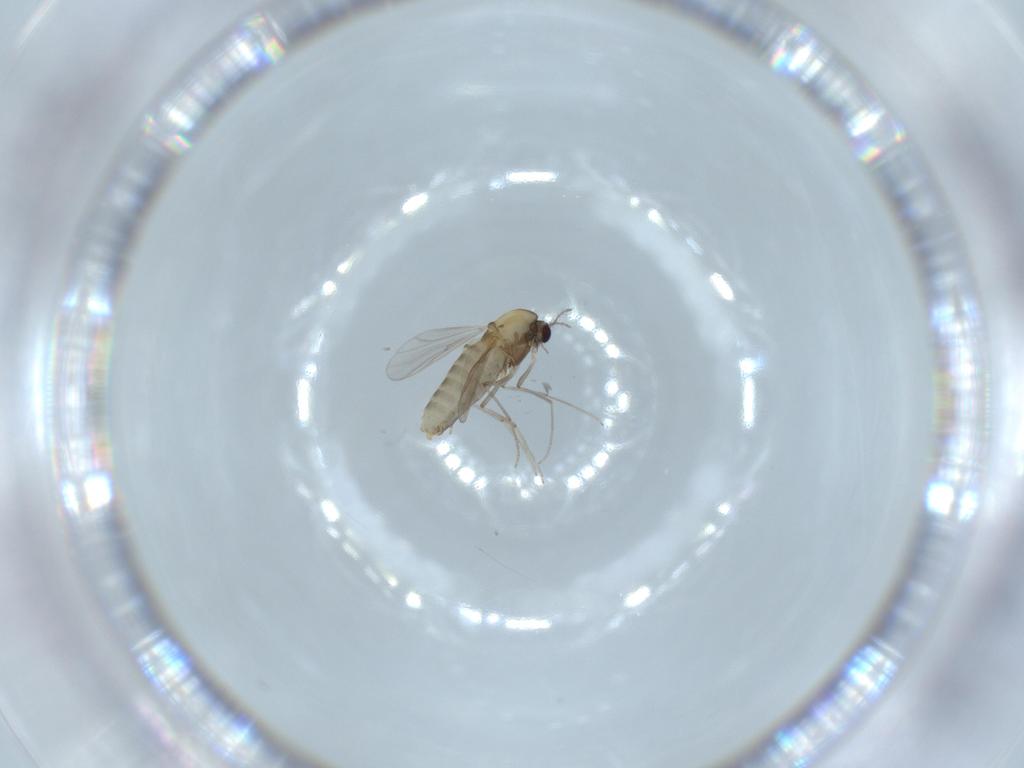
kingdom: Animalia
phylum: Arthropoda
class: Insecta
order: Diptera
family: Chironomidae
